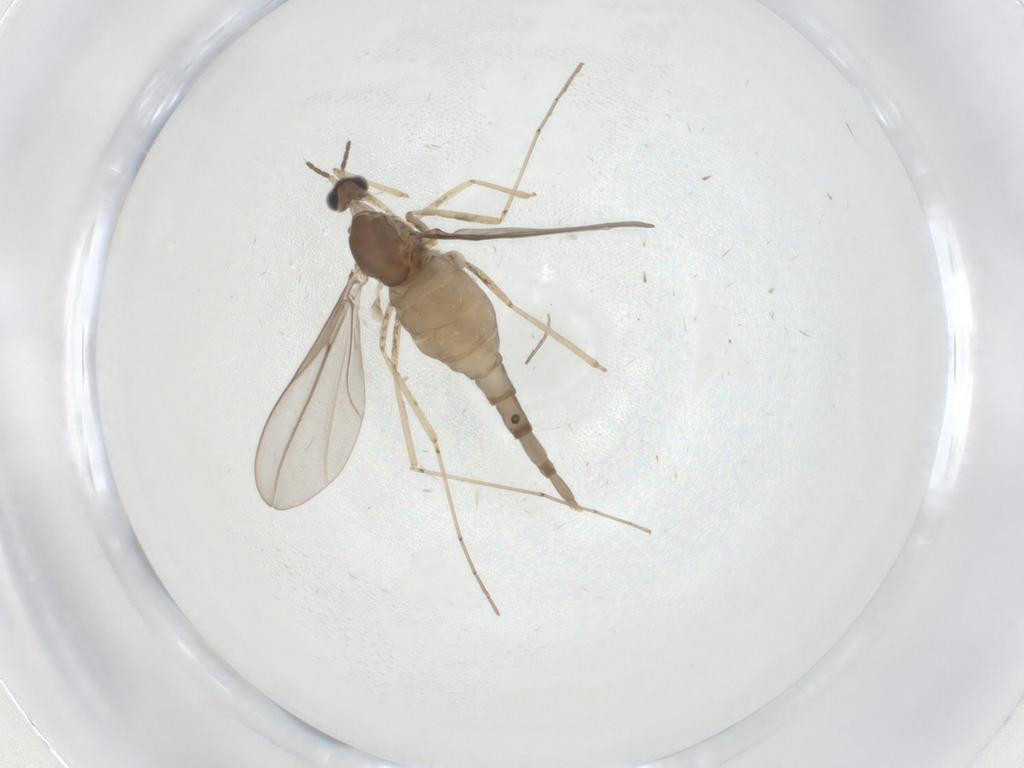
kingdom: Animalia
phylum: Arthropoda
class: Insecta
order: Diptera
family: Cecidomyiidae
